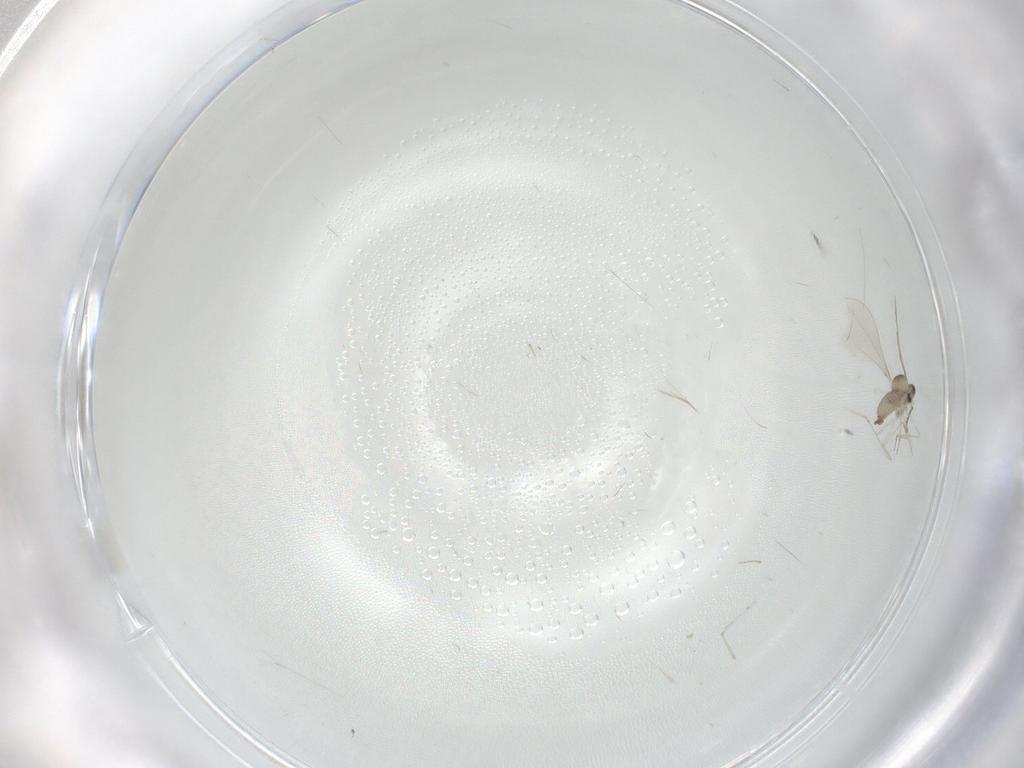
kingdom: Animalia
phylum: Arthropoda
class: Insecta
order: Diptera
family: Cecidomyiidae
